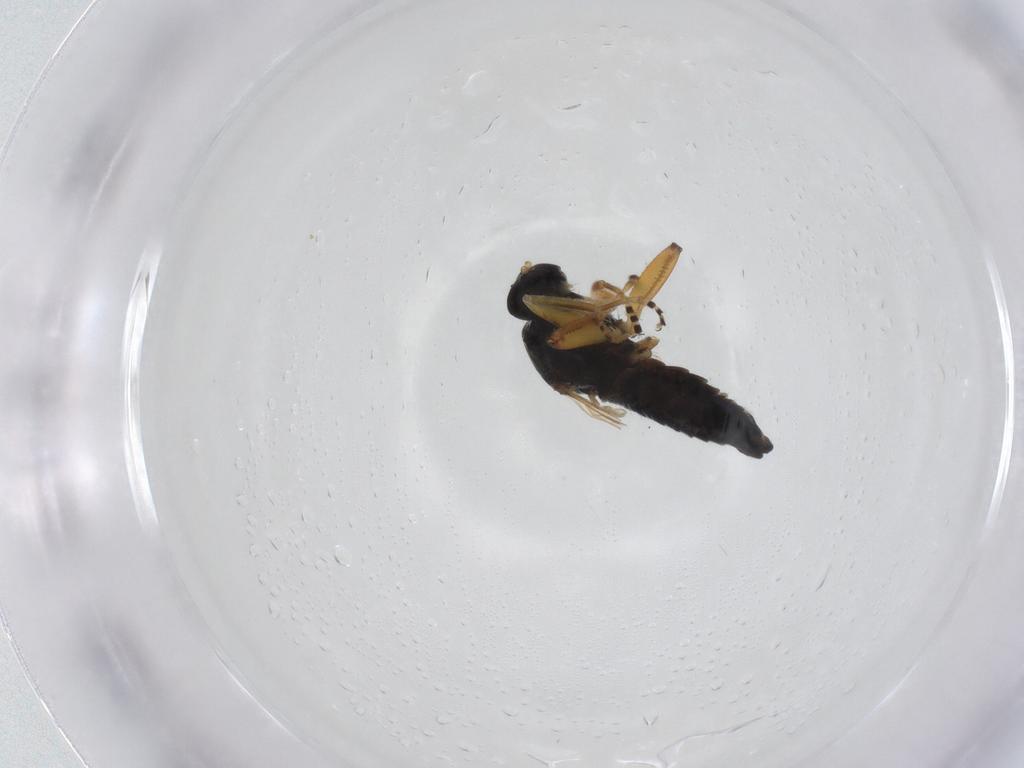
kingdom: Animalia
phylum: Arthropoda
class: Insecta
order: Diptera
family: Hybotidae
